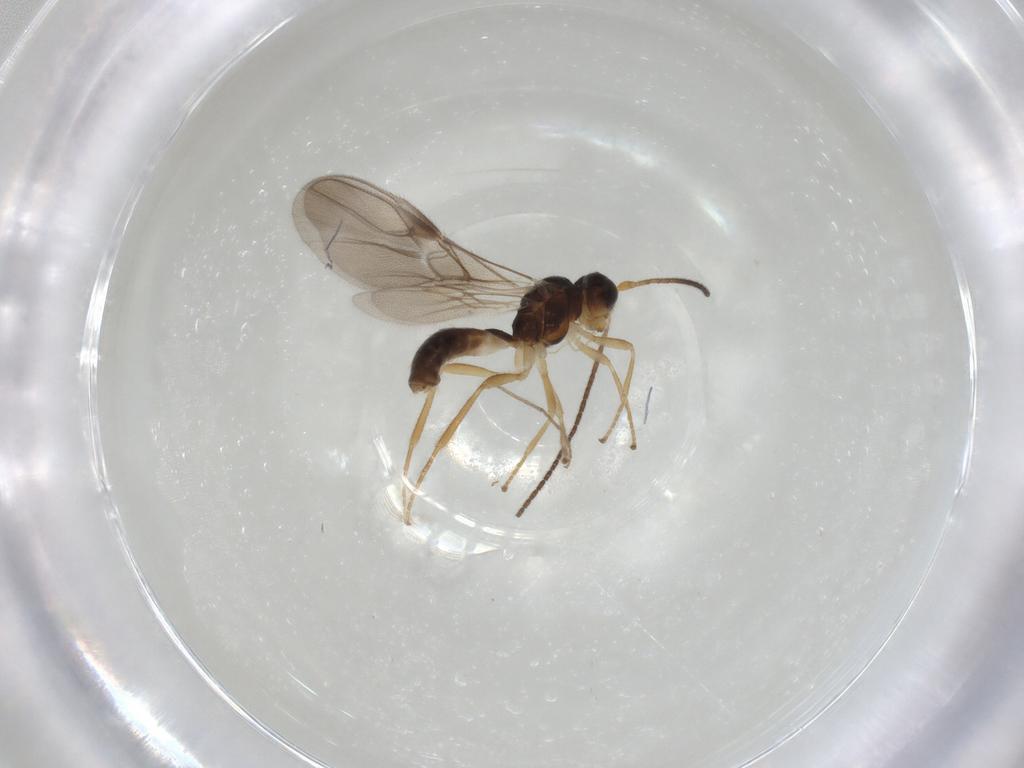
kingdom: Animalia
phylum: Arthropoda
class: Insecta
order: Hymenoptera
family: Braconidae
